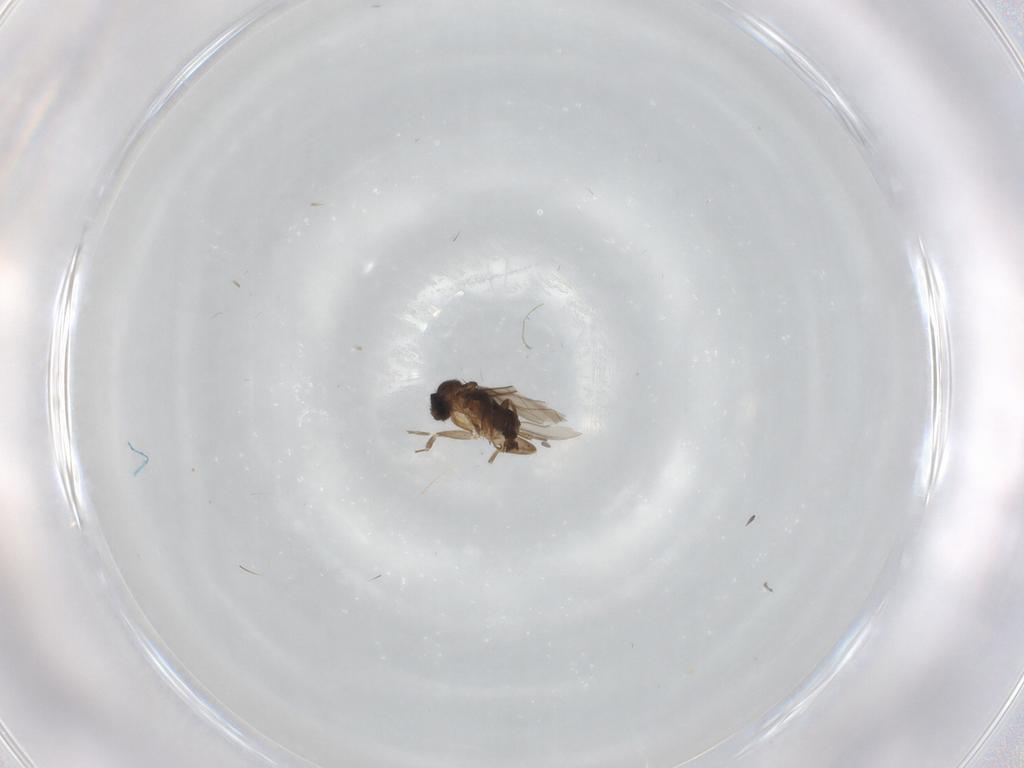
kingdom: Animalia
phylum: Arthropoda
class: Insecta
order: Diptera
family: Phoridae
